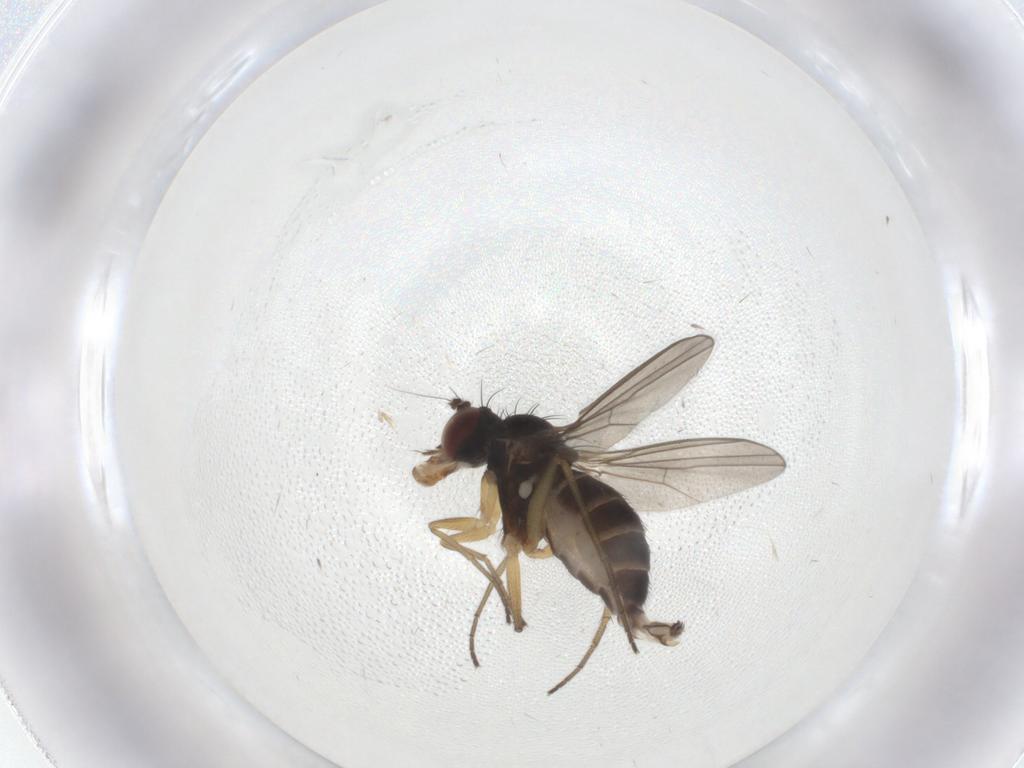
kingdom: Animalia
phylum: Arthropoda
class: Insecta
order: Diptera
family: Dolichopodidae
